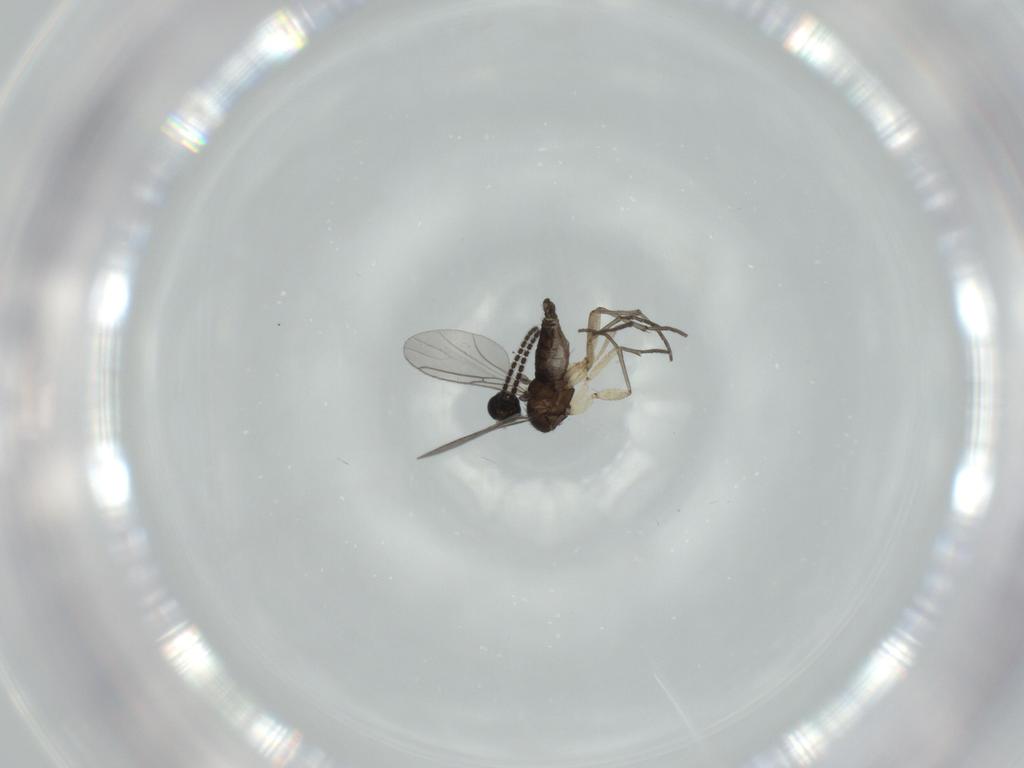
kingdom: Animalia
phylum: Arthropoda
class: Insecta
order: Diptera
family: Sciaridae
